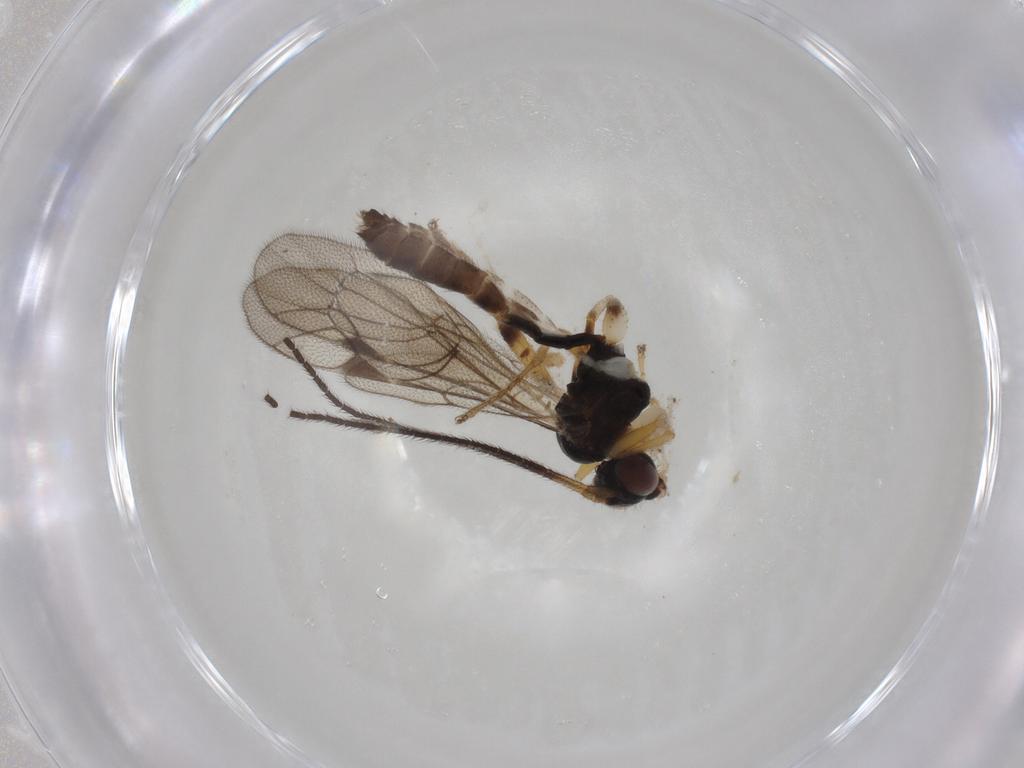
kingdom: Animalia
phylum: Arthropoda
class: Insecta
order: Hymenoptera
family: Ichneumonidae
